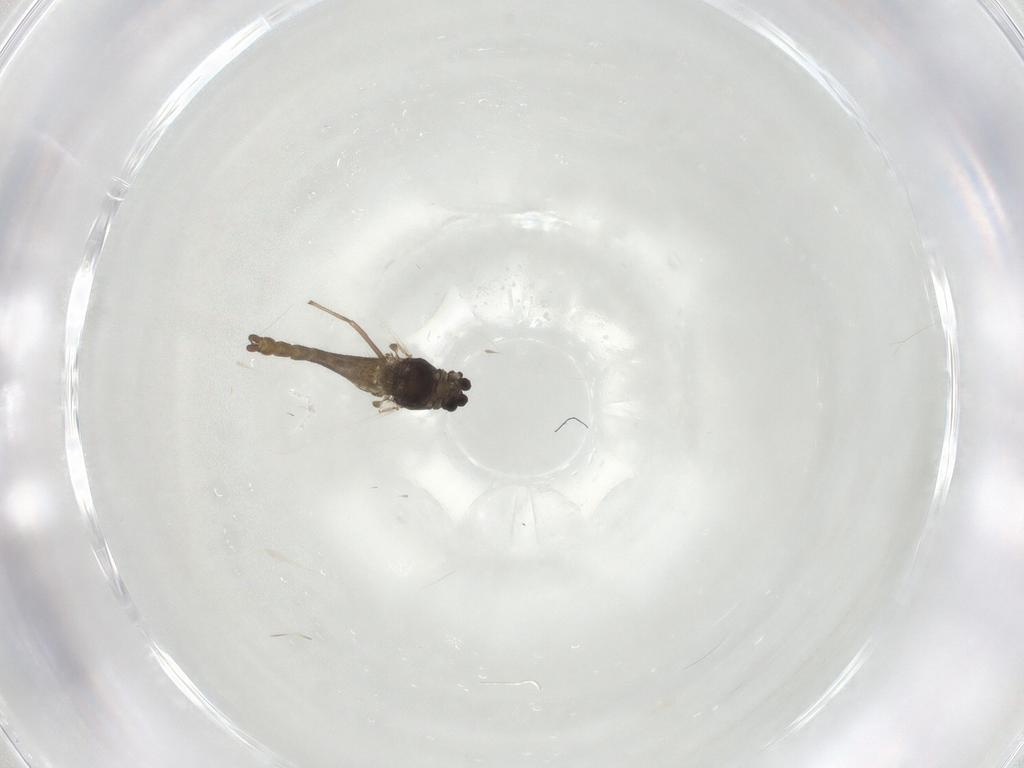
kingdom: Animalia
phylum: Arthropoda
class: Insecta
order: Diptera
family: Chironomidae
